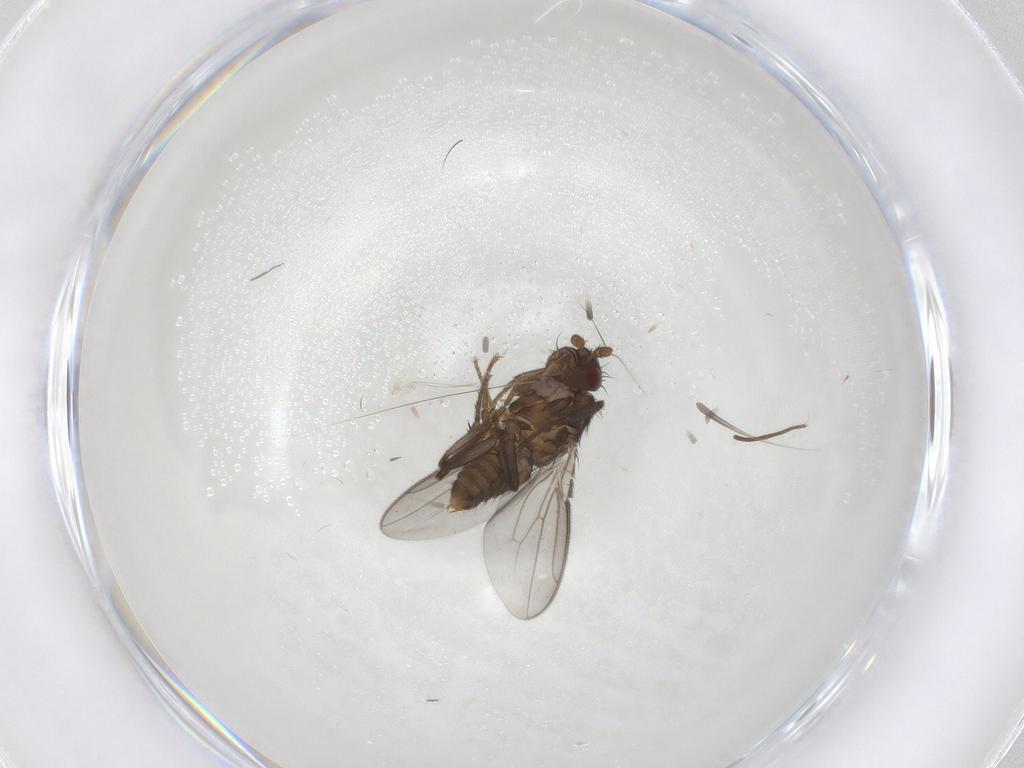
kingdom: Animalia
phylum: Arthropoda
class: Insecta
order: Diptera
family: Sphaeroceridae
